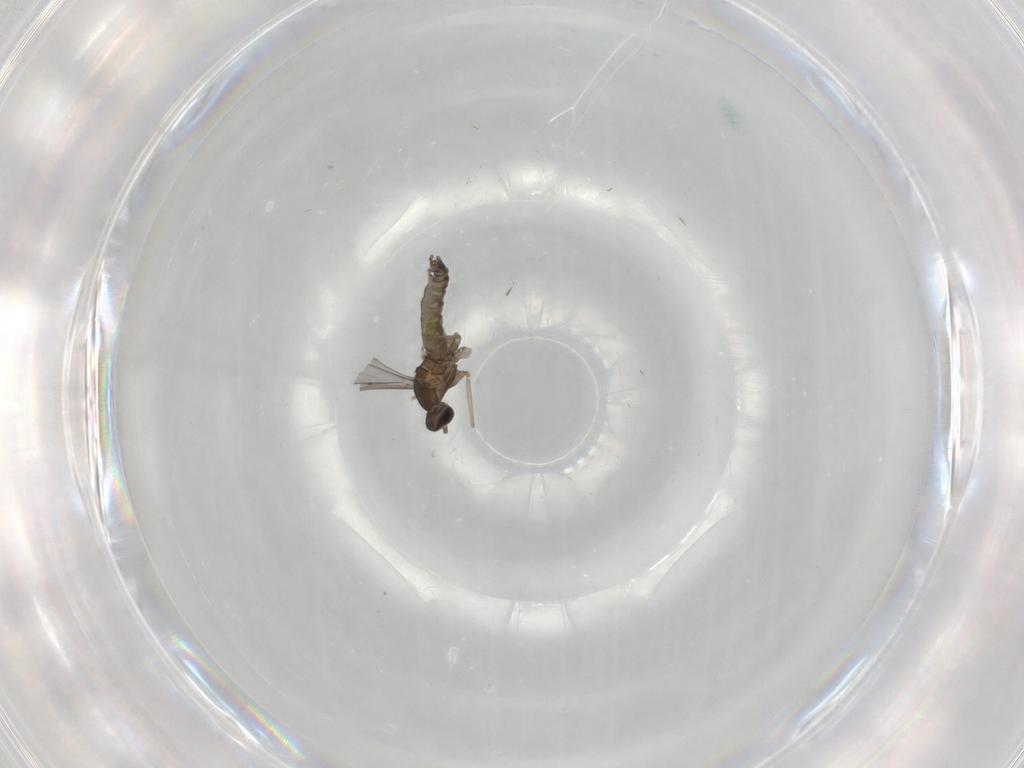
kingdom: Animalia
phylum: Arthropoda
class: Insecta
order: Diptera
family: Cecidomyiidae
